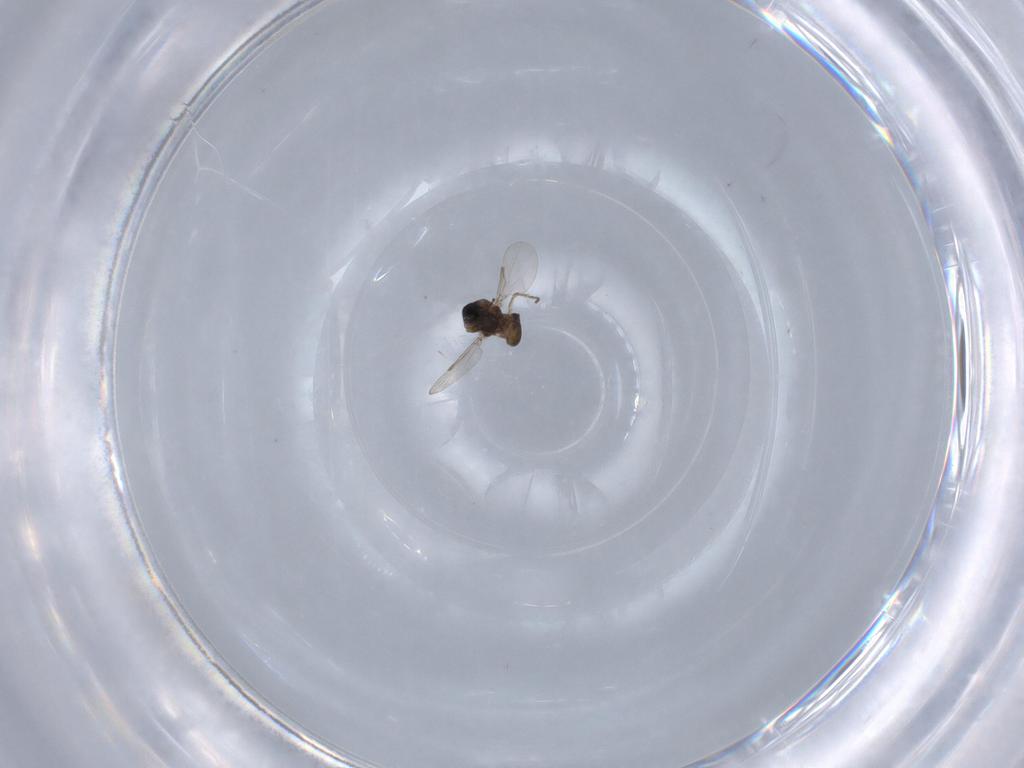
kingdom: Animalia
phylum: Arthropoda
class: Insecta
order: Diptera
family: Ceratopogonidae
